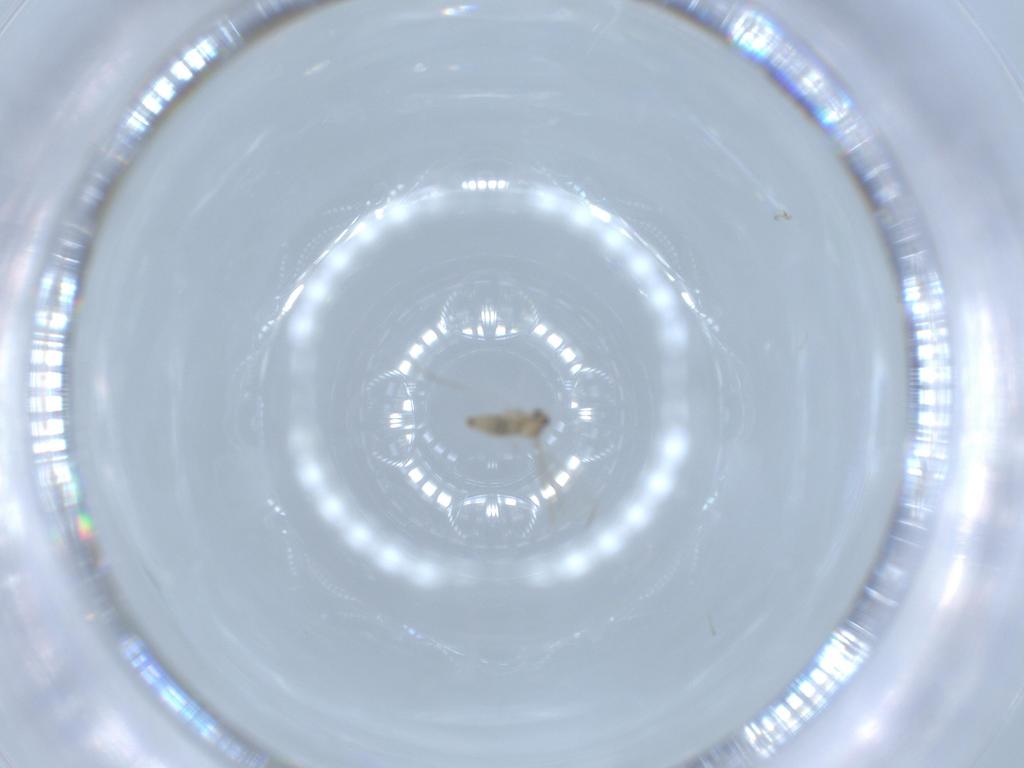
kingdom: Animalia
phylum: Arthropoda
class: Insecta
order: Diptera
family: Cecidomyiidae
